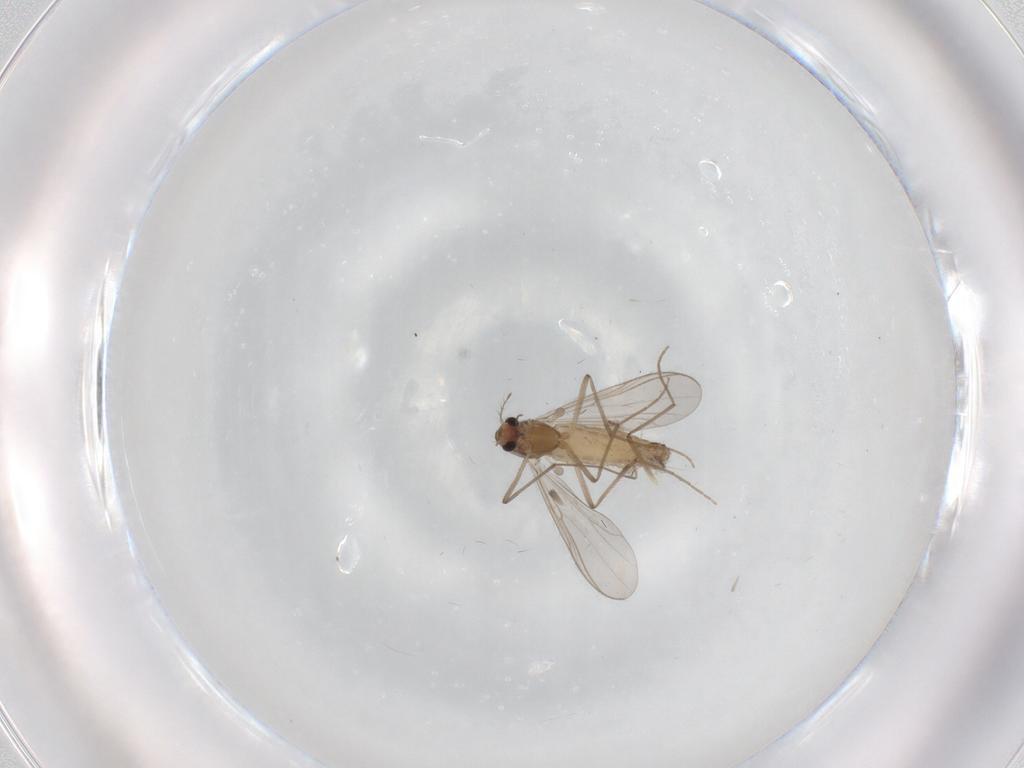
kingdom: Animalia
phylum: Arthropoda
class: Insecta
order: Diptera
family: Chironomidae
